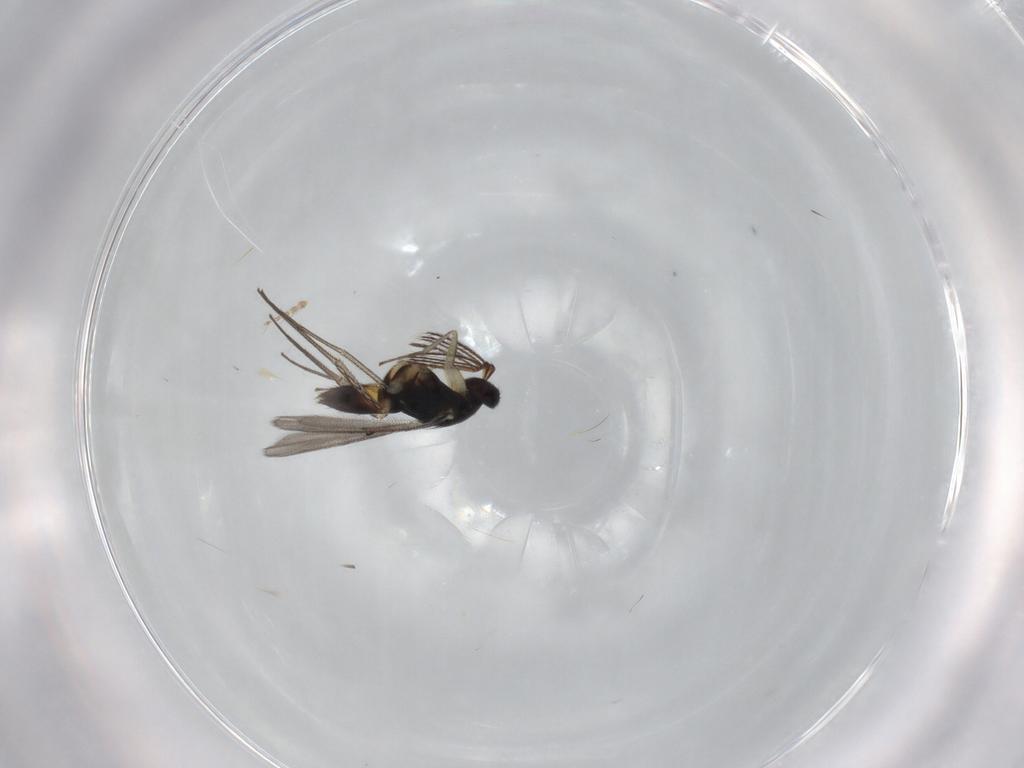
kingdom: Animalia
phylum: Arthropoda
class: Insecta
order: Hymenoptera
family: Eulophidae
